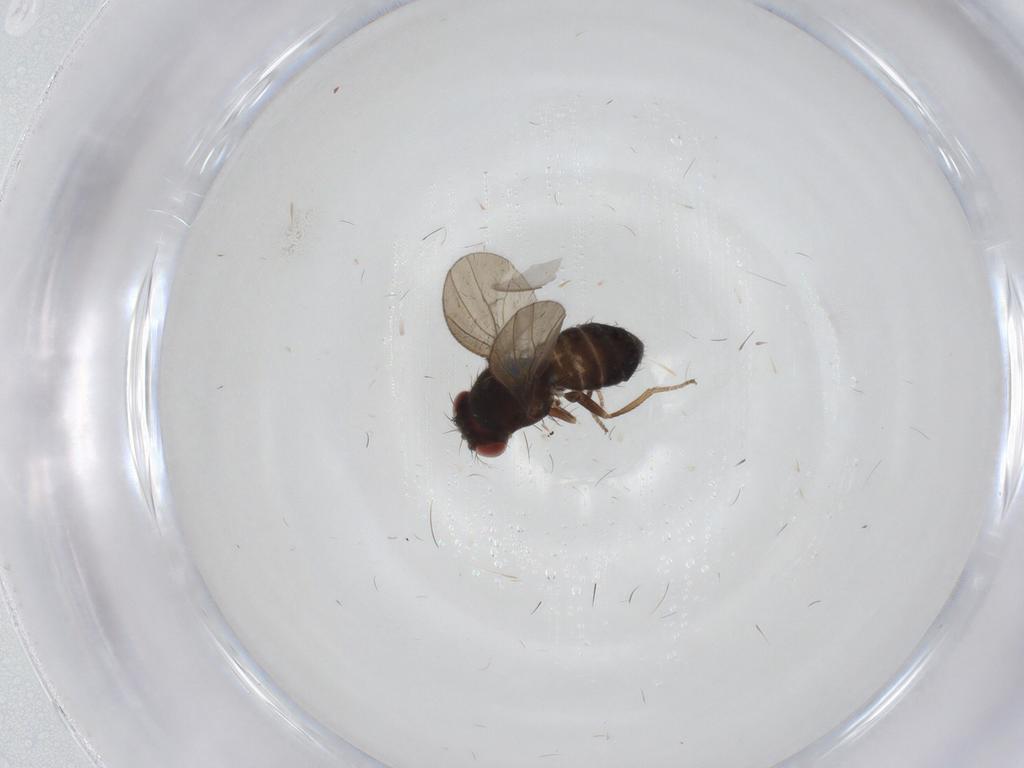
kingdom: Animalia
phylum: Arthropoda
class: Insecta
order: Diptera
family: Drosophilidae
